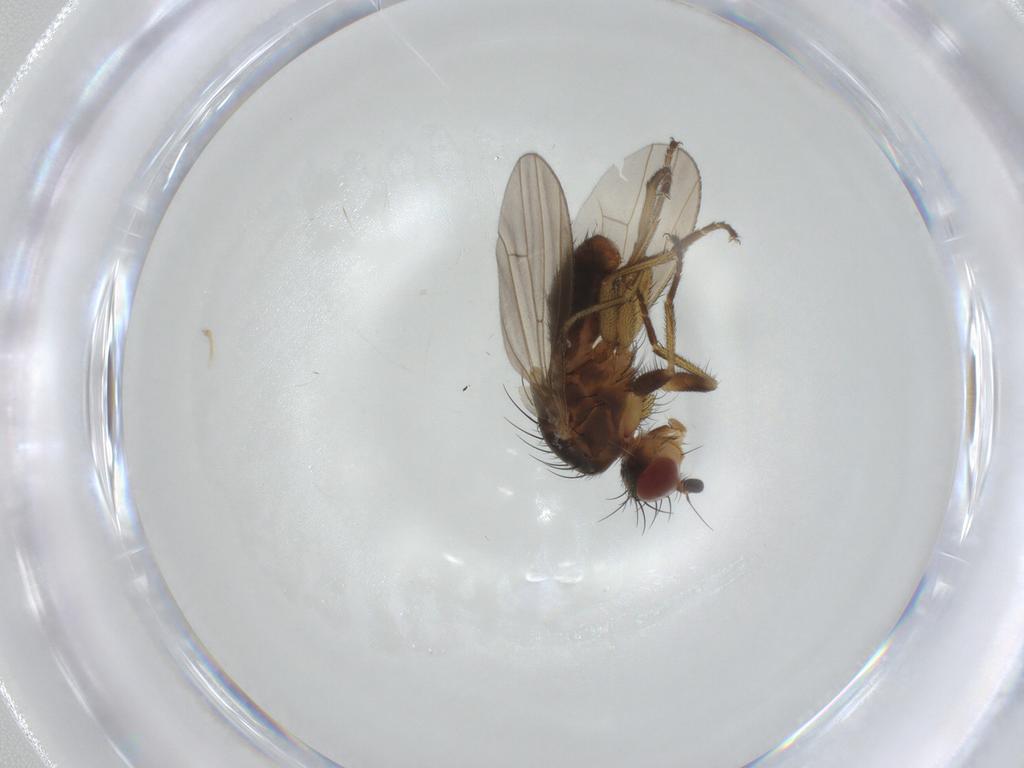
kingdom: Animalia
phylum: Arthropoda
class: Insecta
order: Diptera
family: Heleomyzidae
